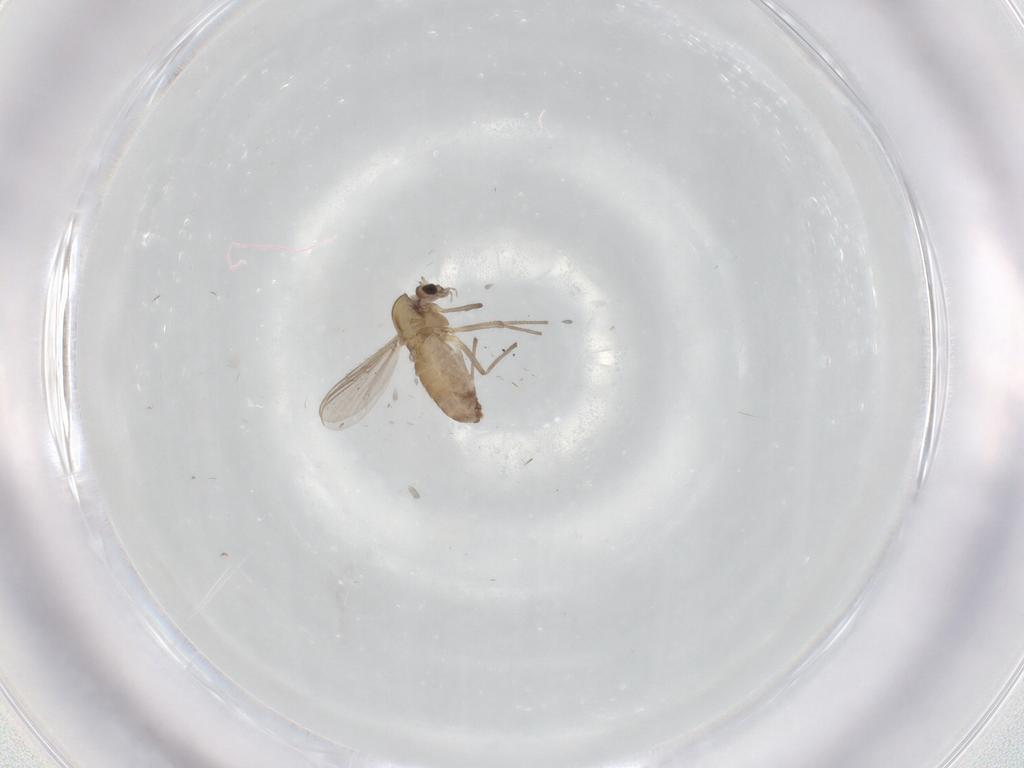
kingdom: Animalia
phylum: Arthropoda
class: Insecta
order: Diptera
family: Chironomidae
